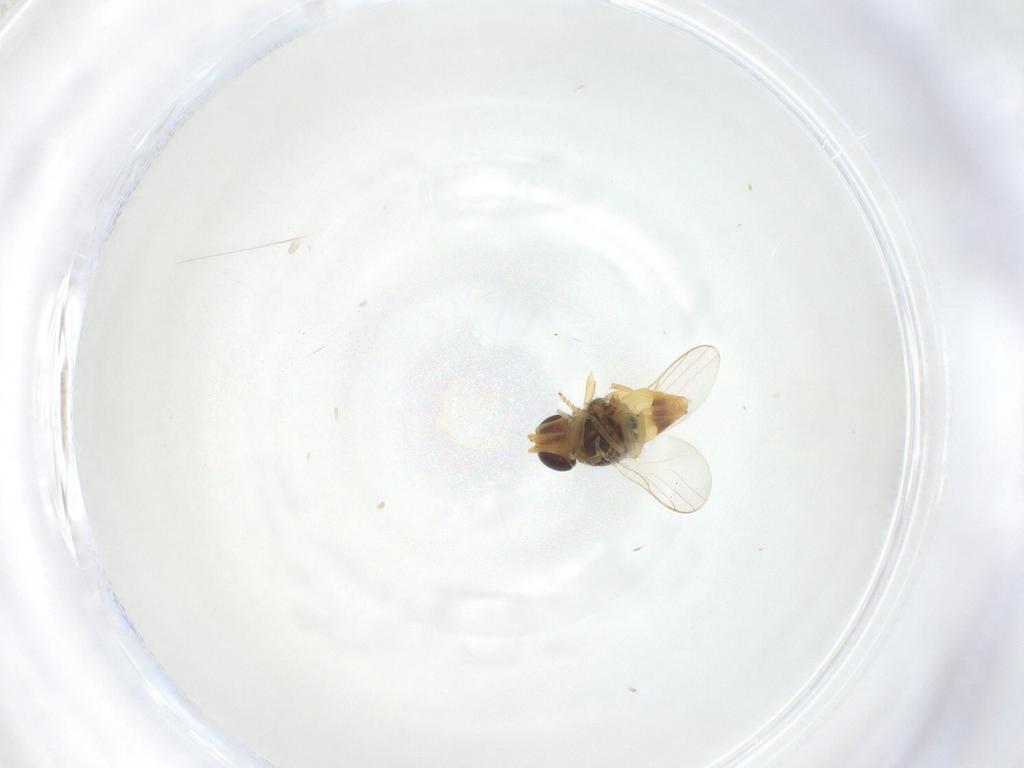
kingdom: Animalia
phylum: Arthropoda
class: Insecta
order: Diptera
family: Chloropidae
